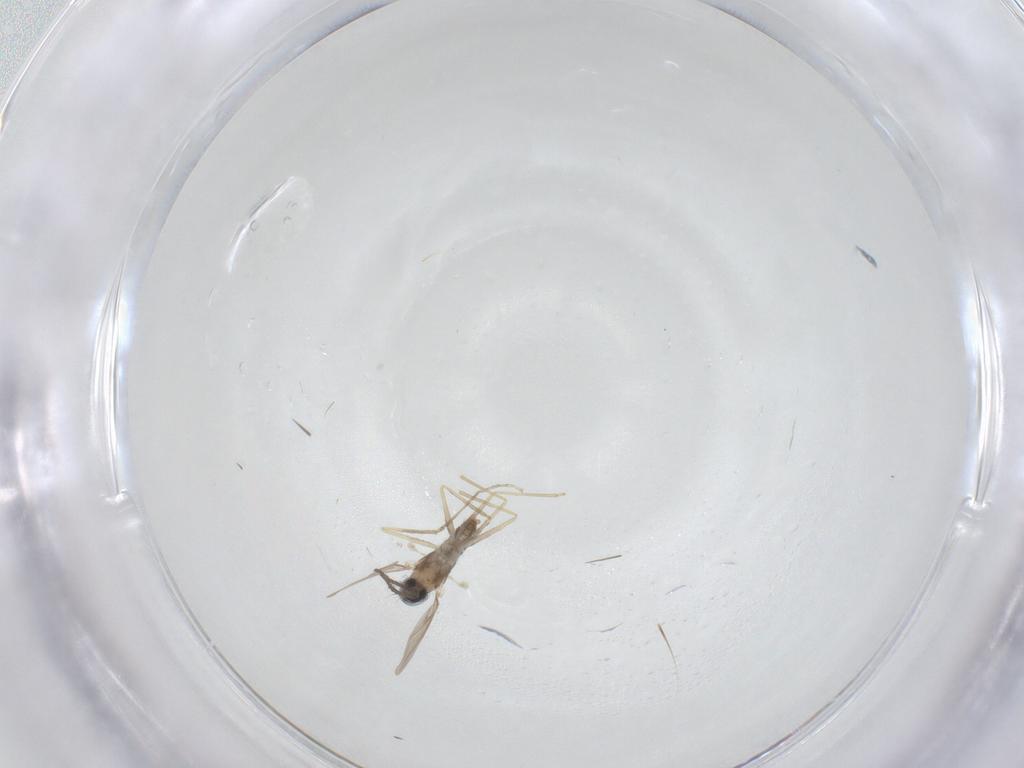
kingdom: Animalia
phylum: Arthropoda
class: Insecta
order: Diptera
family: Cecidomyiidae
